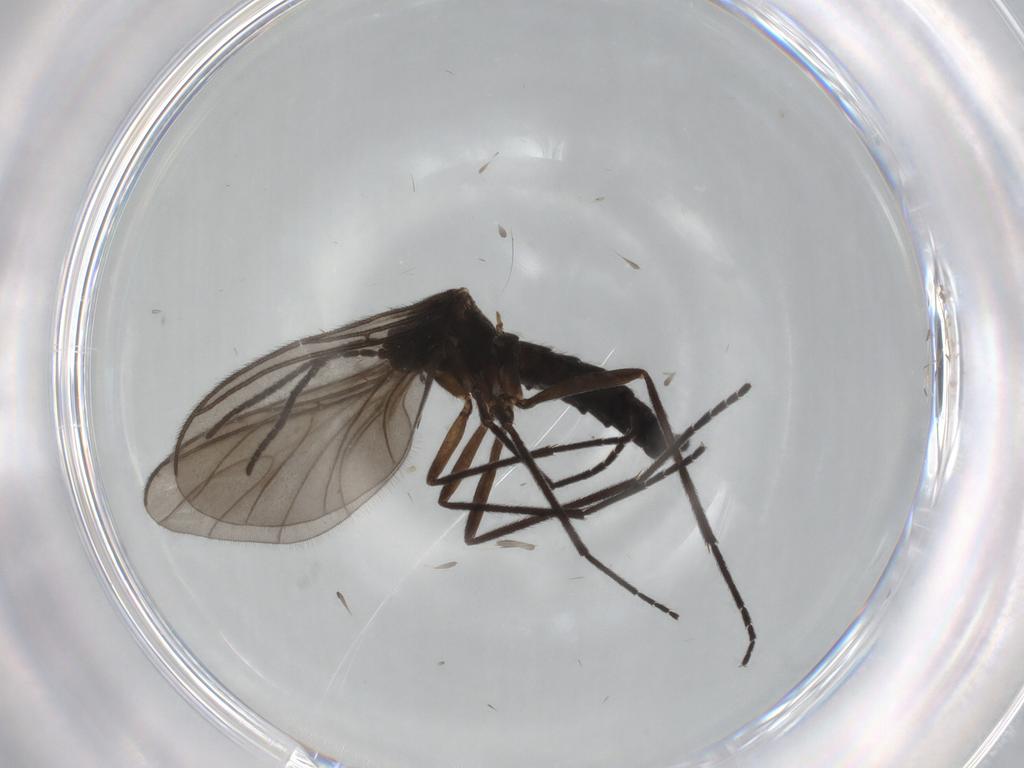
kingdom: Animalia
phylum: Arthropoda
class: Insecta
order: Diptera
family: Sciaridae
